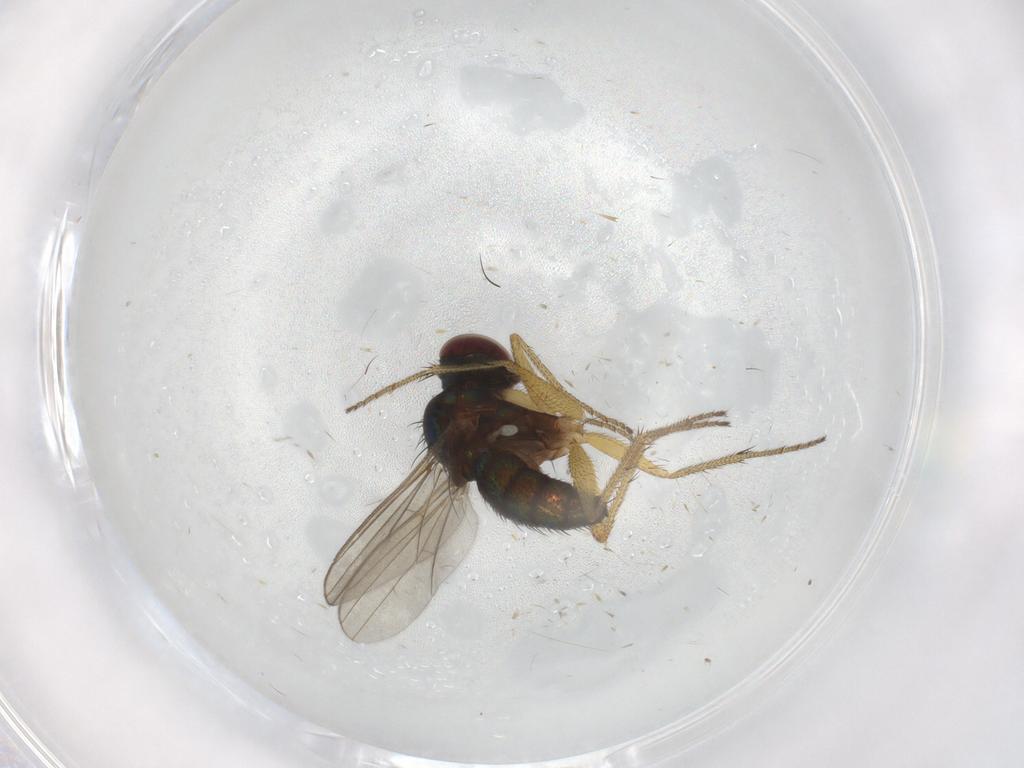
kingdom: Animalia
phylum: Arthropoda
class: Insecta
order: Diptera
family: Dolichopodidae
